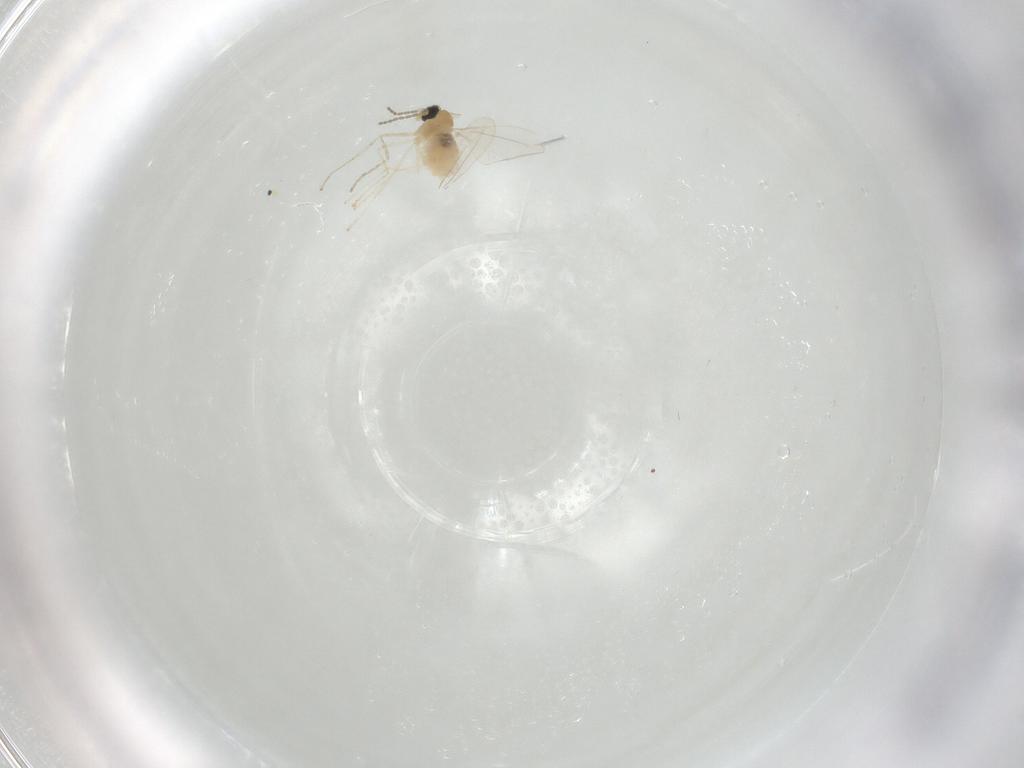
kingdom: Animalia
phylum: Arthropoda
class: Insecta
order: Diptera
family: Cecidomyiidae
